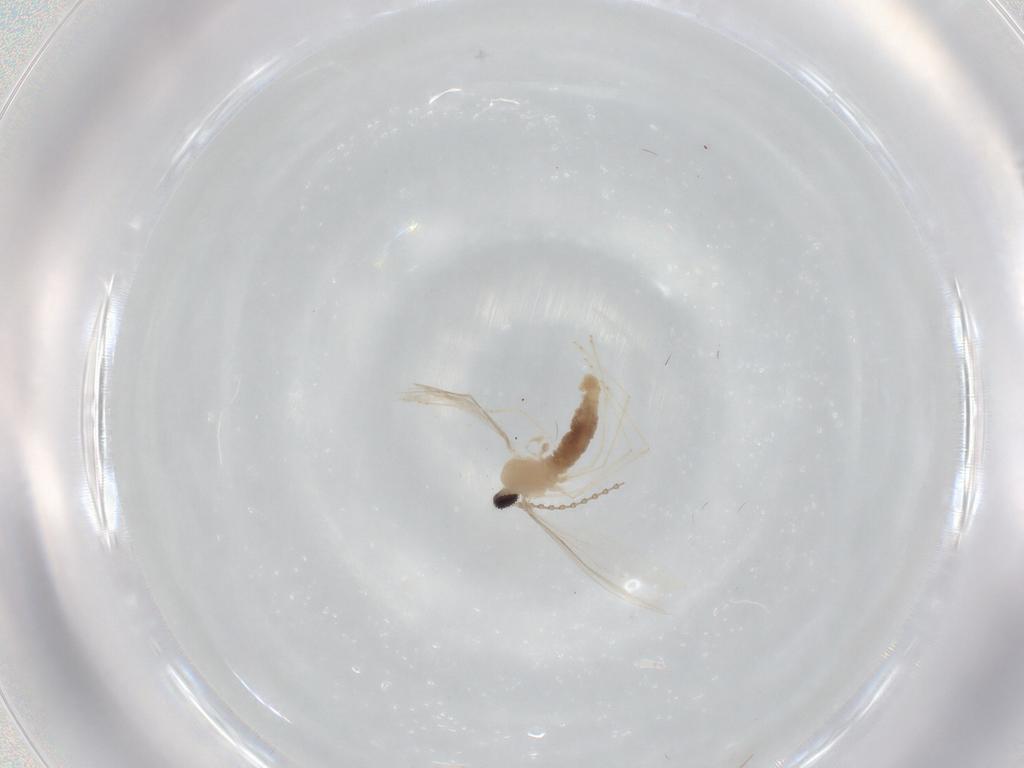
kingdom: Animalia
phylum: Arthropoda
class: Insecta
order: Diptera
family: Cecidomyiidae
